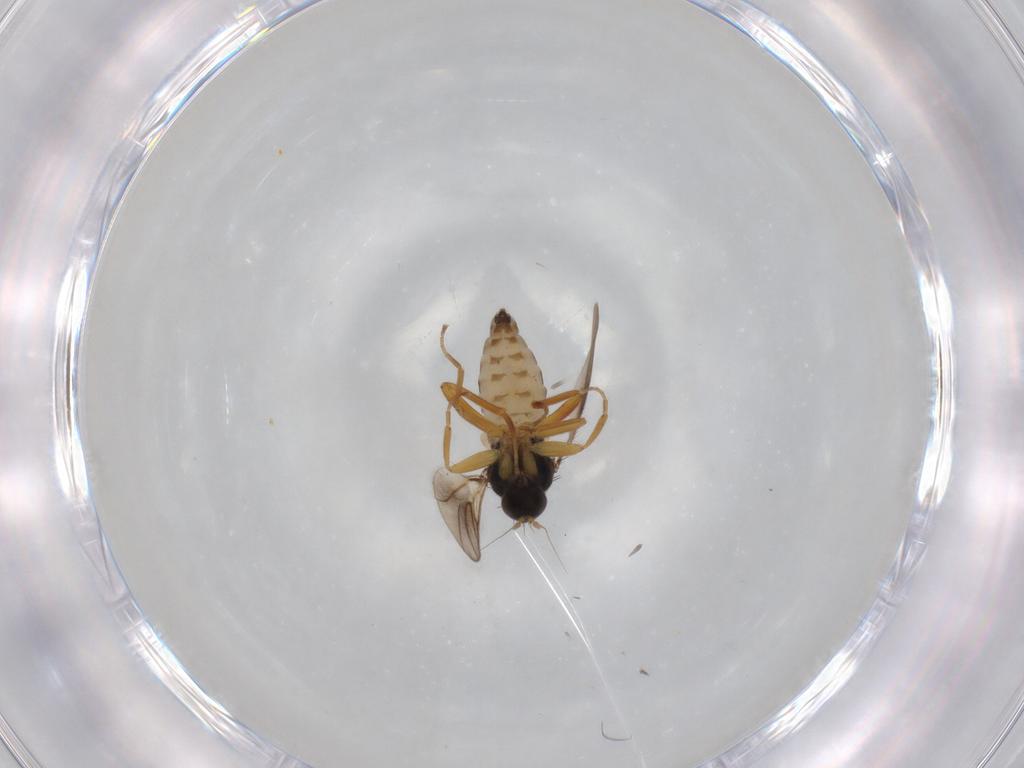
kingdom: Animalia
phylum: Arthropoda
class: Insecta
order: Diptera
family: Hybotidae
